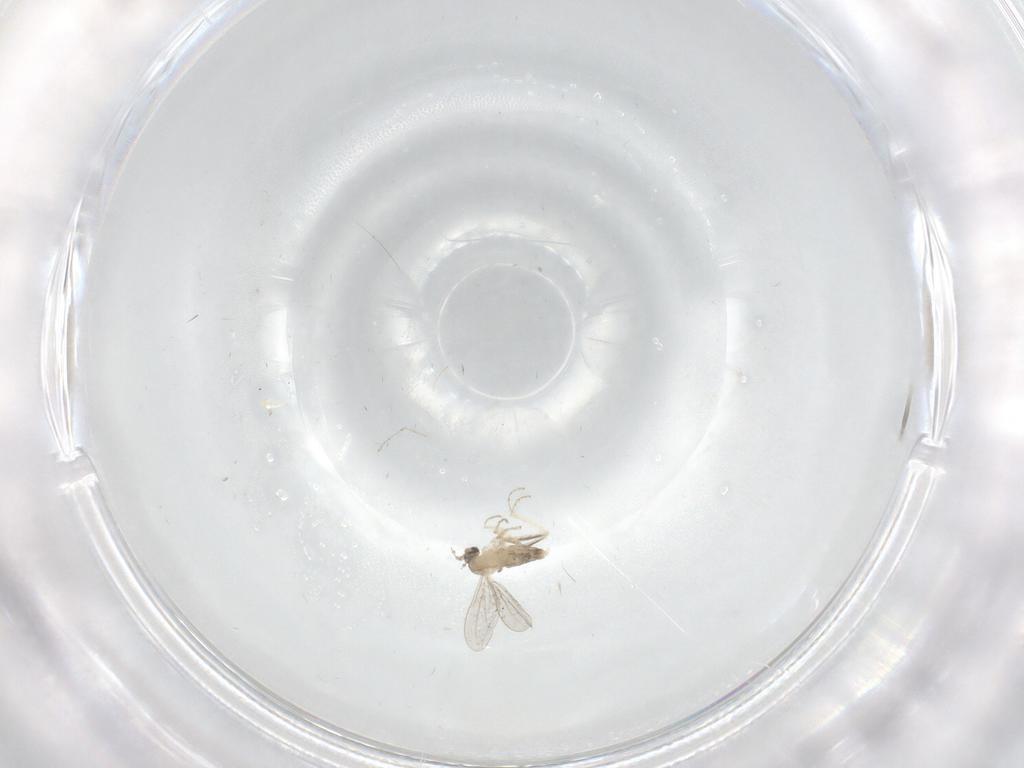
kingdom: Animalia
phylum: Arthropoda
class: Insecta
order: Diptera
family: Cecidomyiidae
